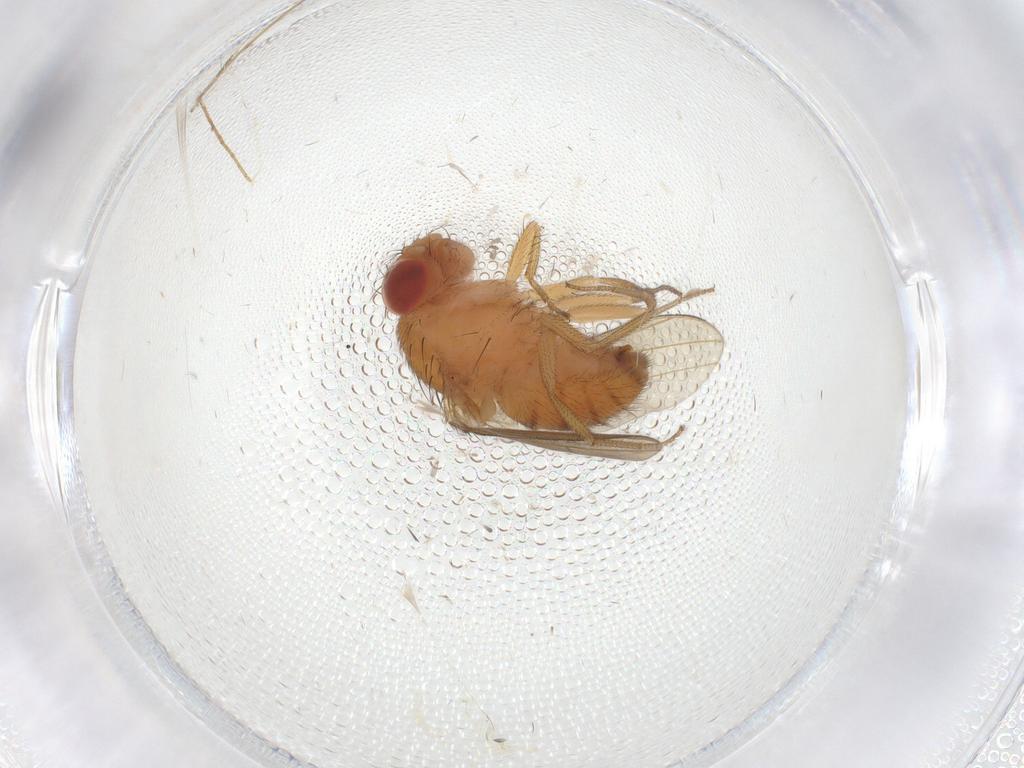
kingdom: Animalia
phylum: Arthropoda
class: Insecta
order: Diptera
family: Drosophilidae
